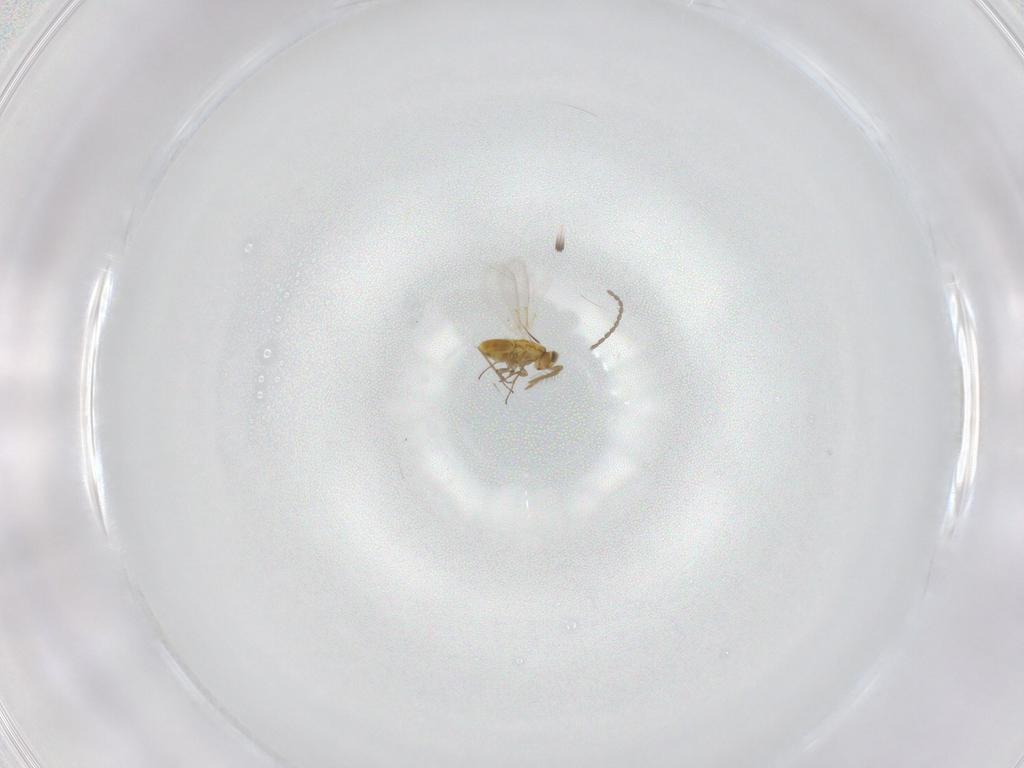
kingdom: Animalia
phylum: Arthropoda
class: Insecta
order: Hymenoptera
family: Aphelinidae
